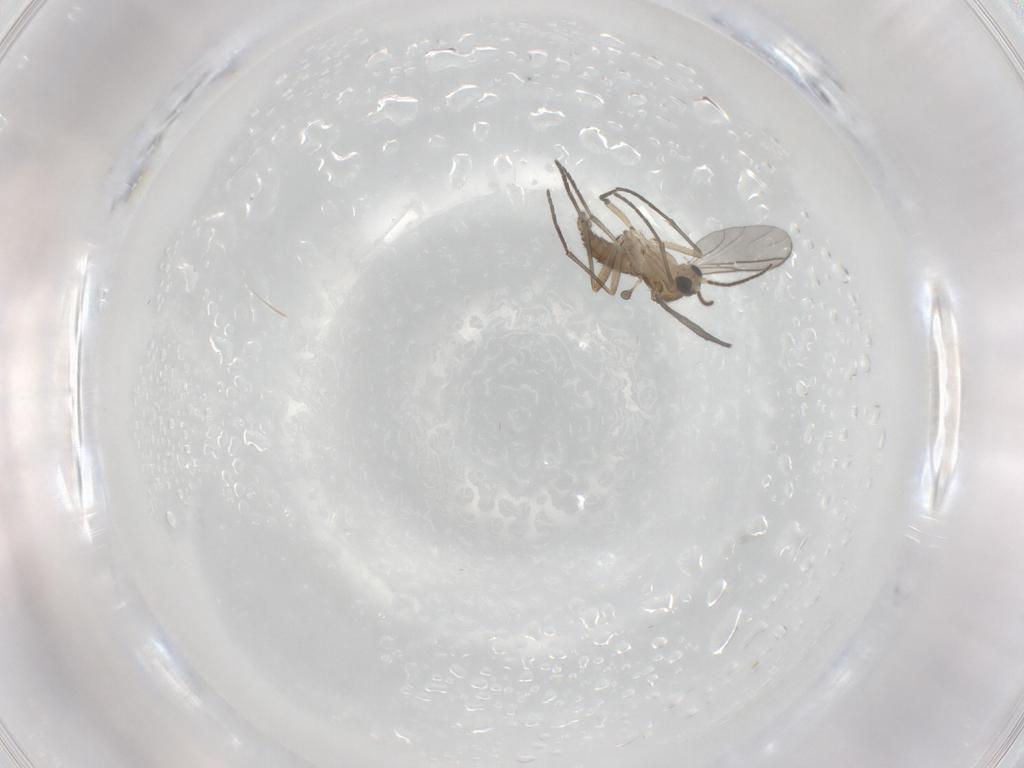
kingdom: Animalia
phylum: Arthropoda
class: Insecta
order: Diptera
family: Sciaridae
